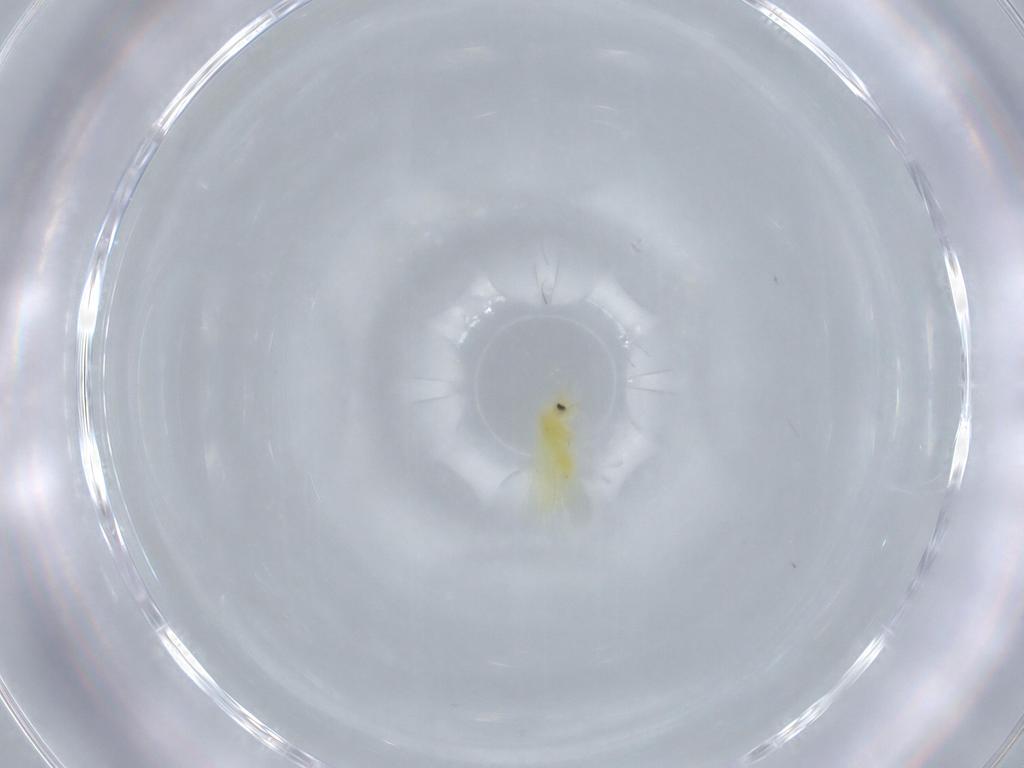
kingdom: Animalia
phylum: Arthropoda
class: Insecta
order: Hemiptera
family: Aleyrodidae
